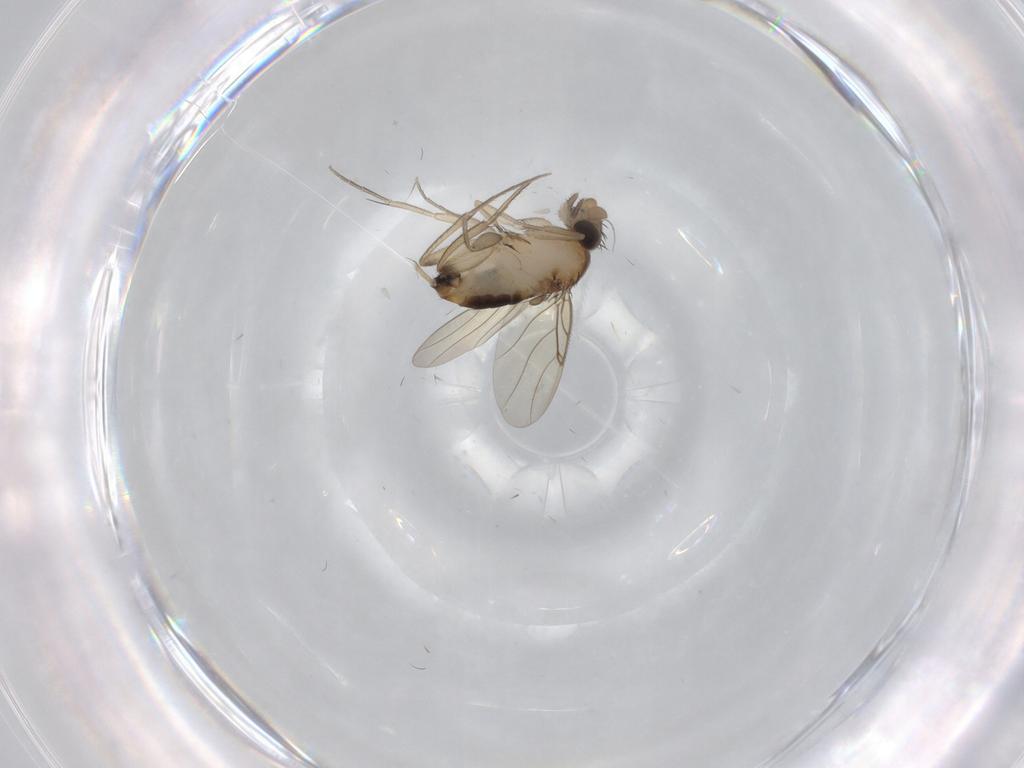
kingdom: Animalia
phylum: Arthropoda
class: Insecta
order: Diptera
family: Phoridae
